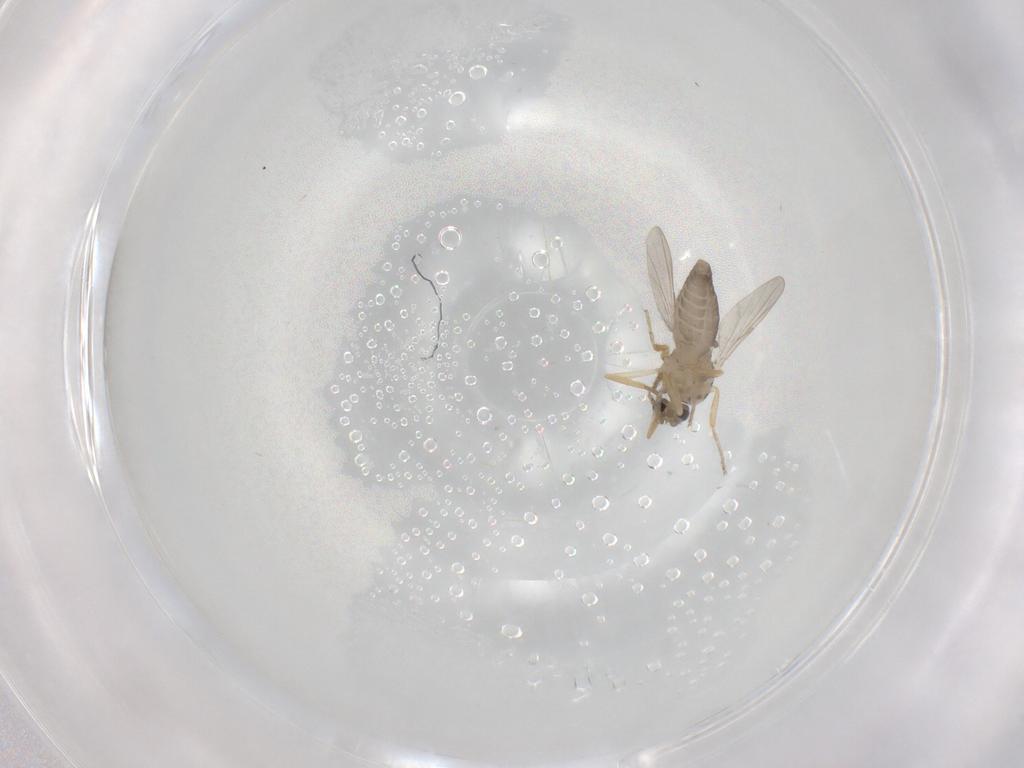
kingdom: Animalia
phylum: Arthropoda
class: Insecta
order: Diptera
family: Ceratopogonidae
